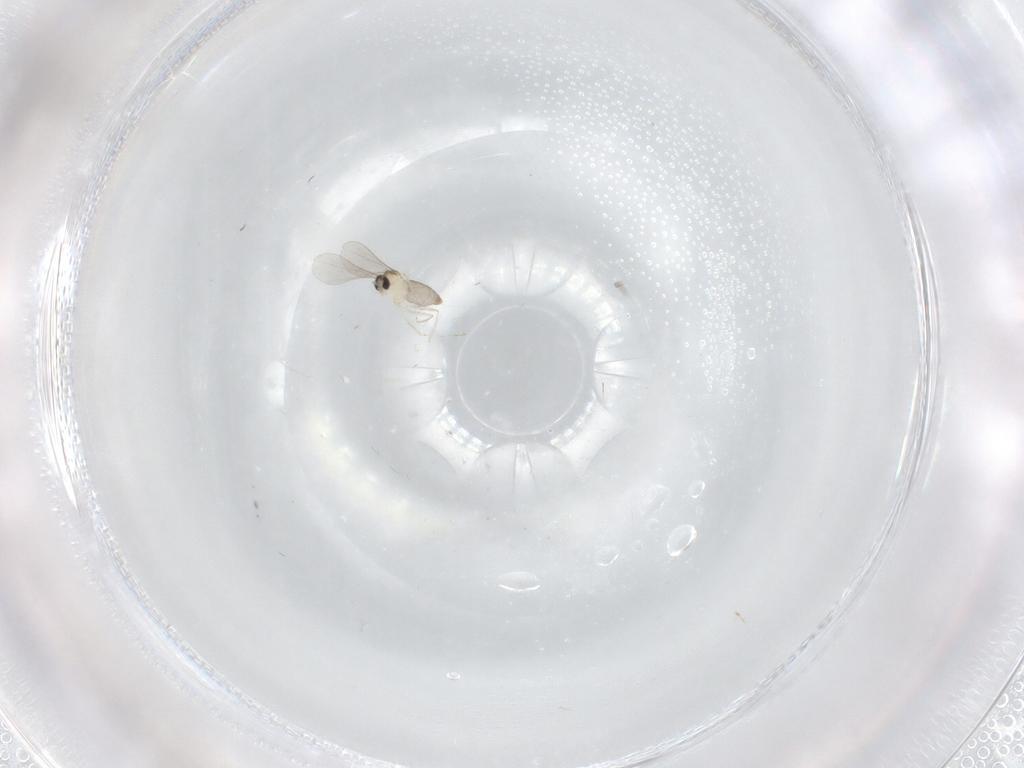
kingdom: Animalia
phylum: Arthropoda
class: Insecta
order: Diptera
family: Cecidomyiidae
